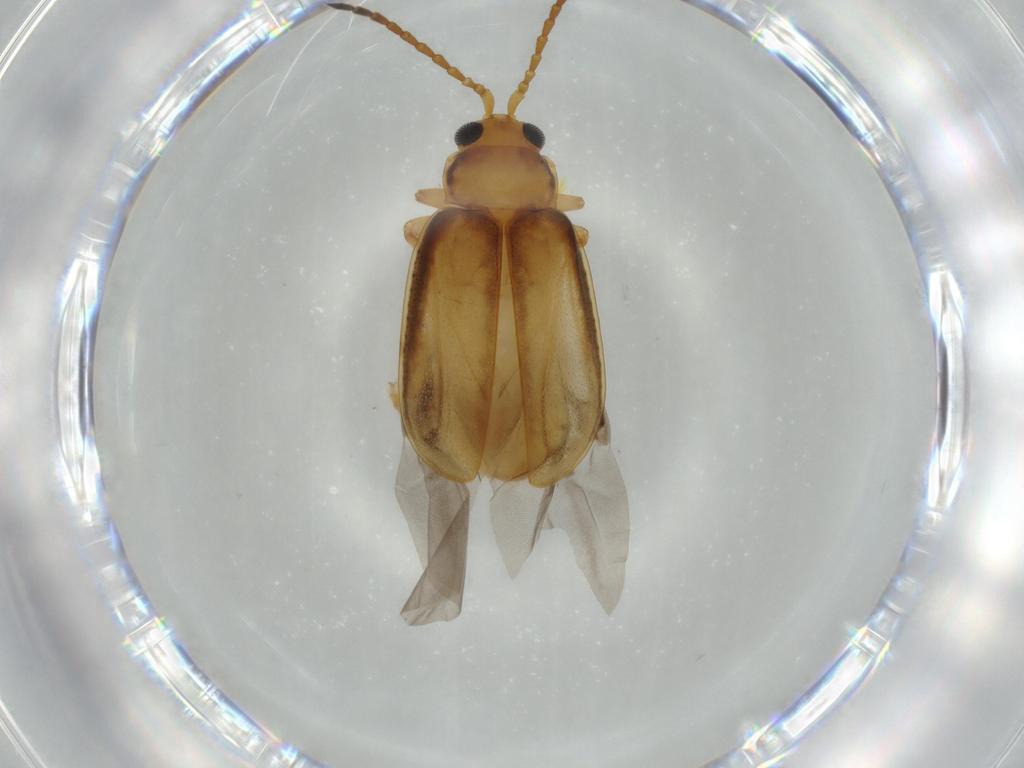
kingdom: Animalia
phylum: Arthropoda
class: Insecta
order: Coleoptera
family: Chrysomelidae
